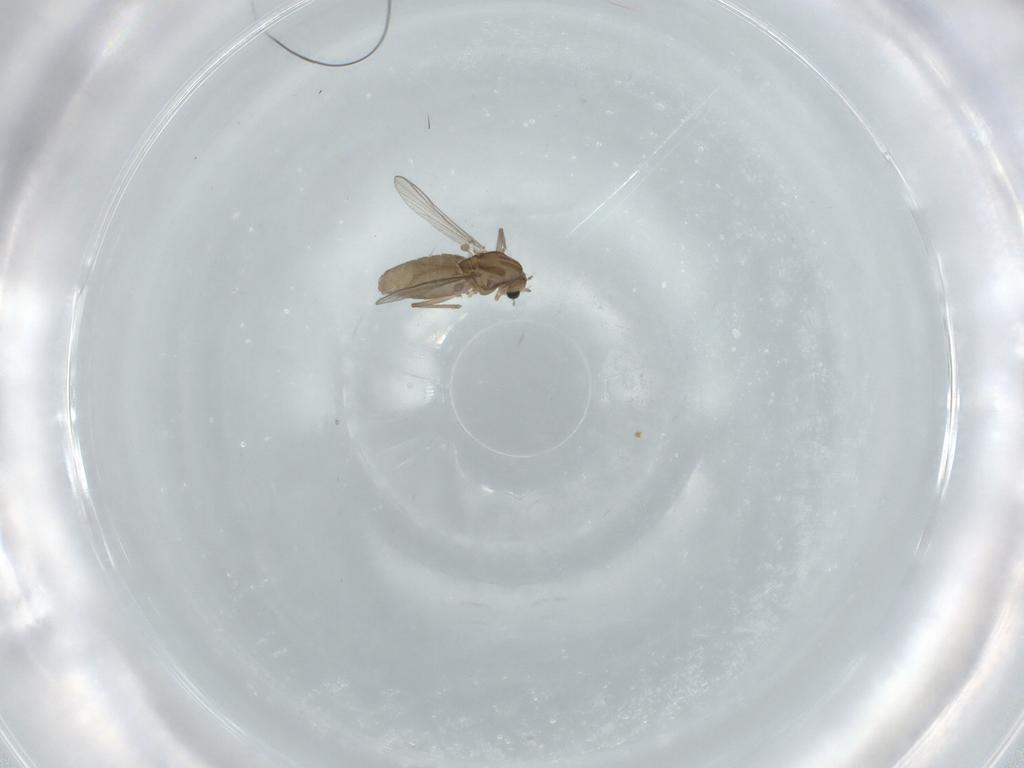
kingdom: Animalia
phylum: Arthropoda
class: Insecta
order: Diptera
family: Chironomidae
